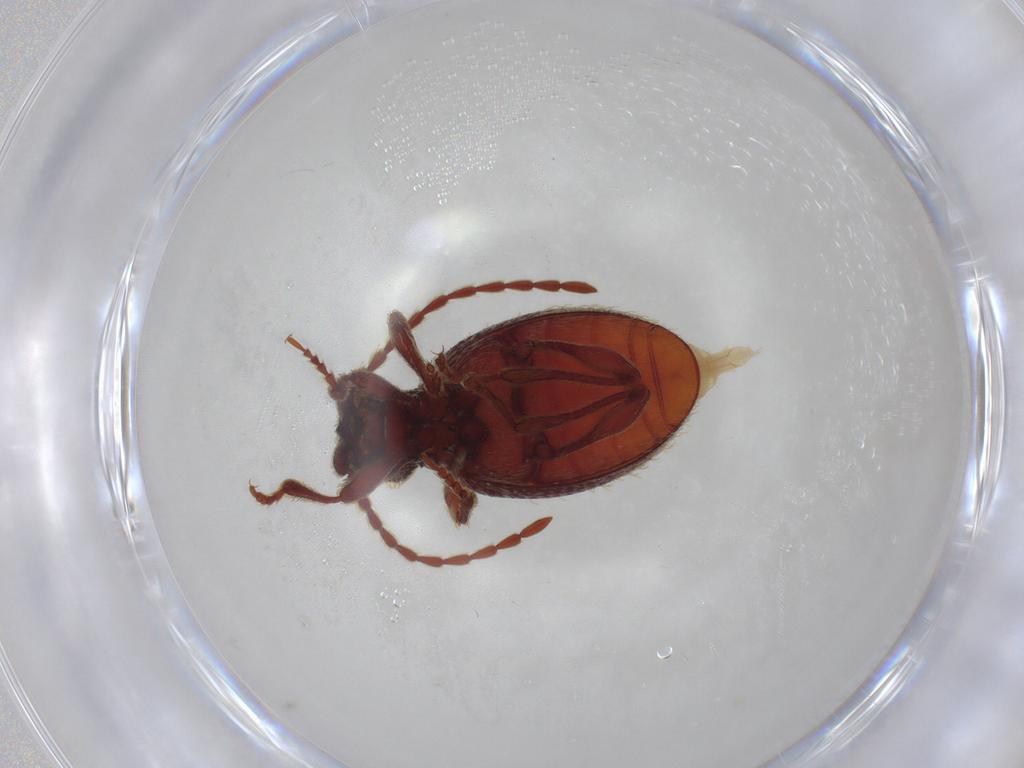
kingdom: Animalia
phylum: Arthropoda
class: Insecta
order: Coleoptera
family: Ptinidae
